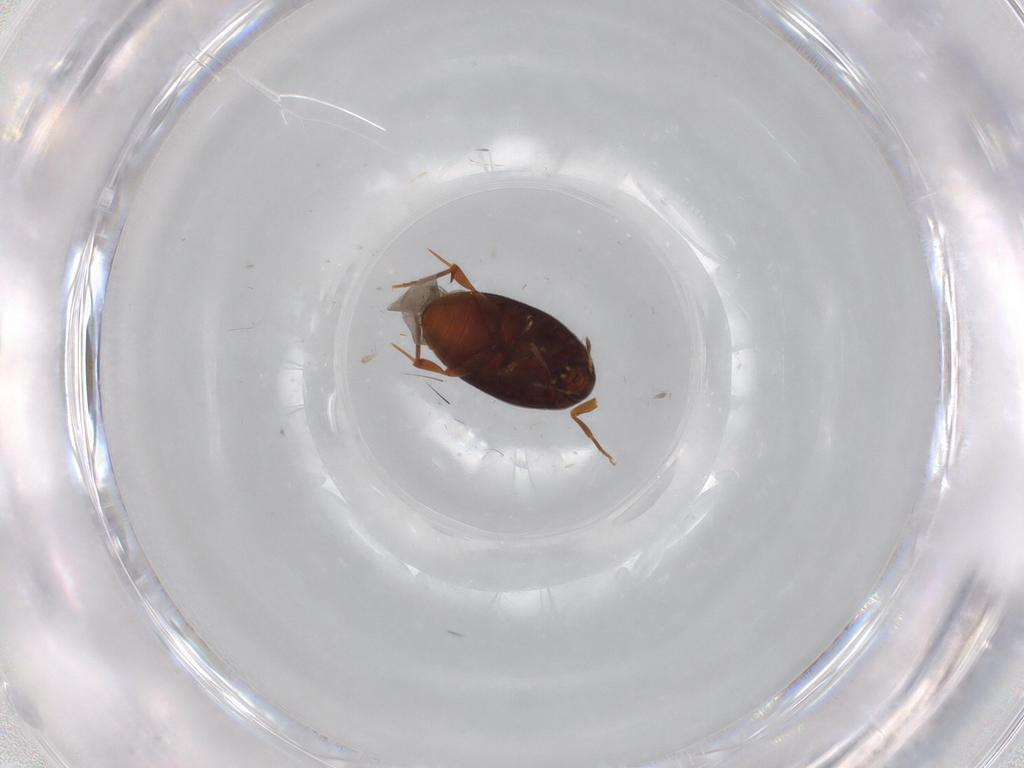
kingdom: Animalia
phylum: Arthropoda
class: Insecta
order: Coleoptera
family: Melandryidae
